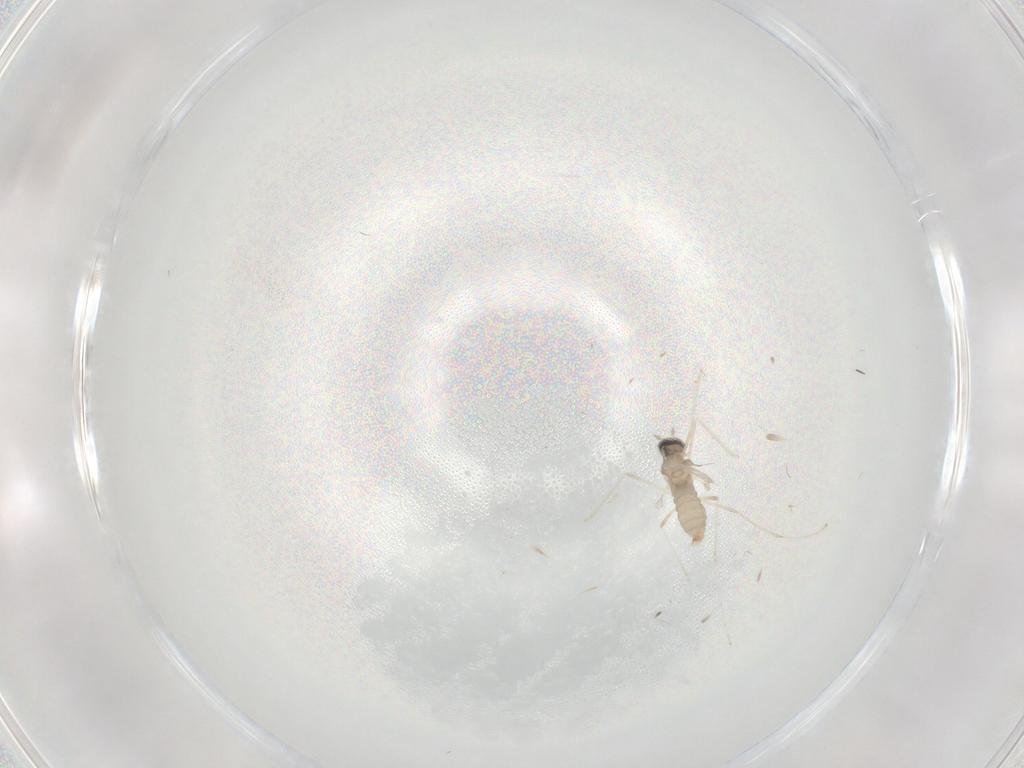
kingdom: Animalia
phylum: Arthropoda
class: Insecta
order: Diptera
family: Cecidomyiidae
